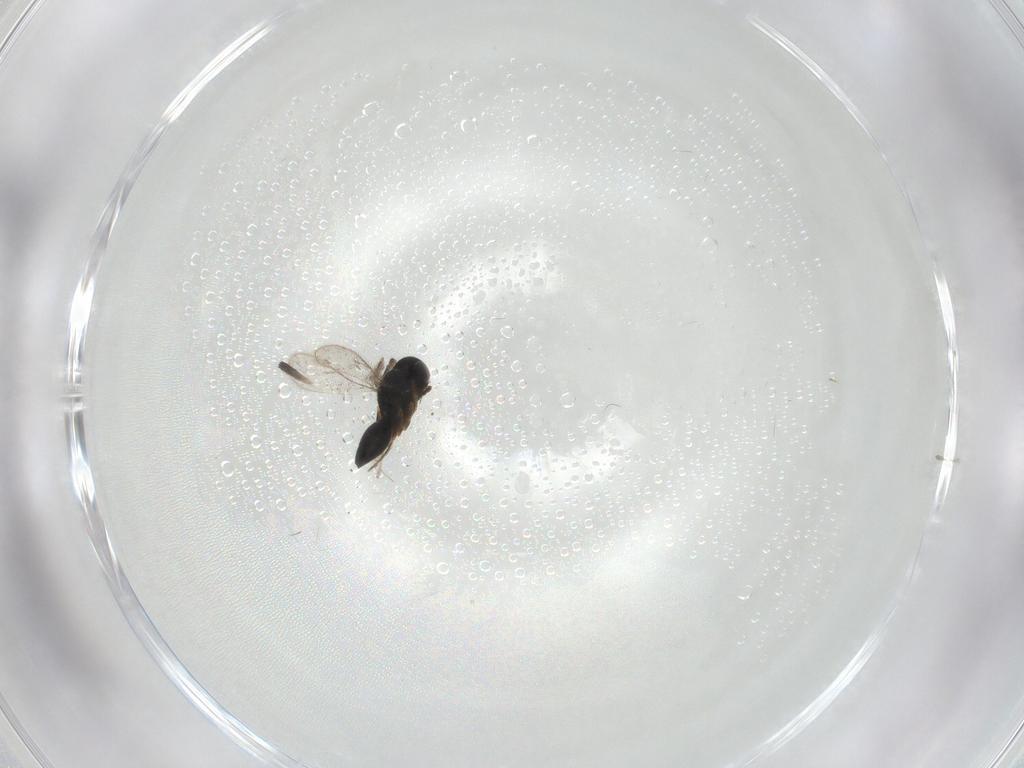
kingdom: Animalia
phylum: Arthropoda
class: Insecta
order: Hymenoptera
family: Scelionidae
